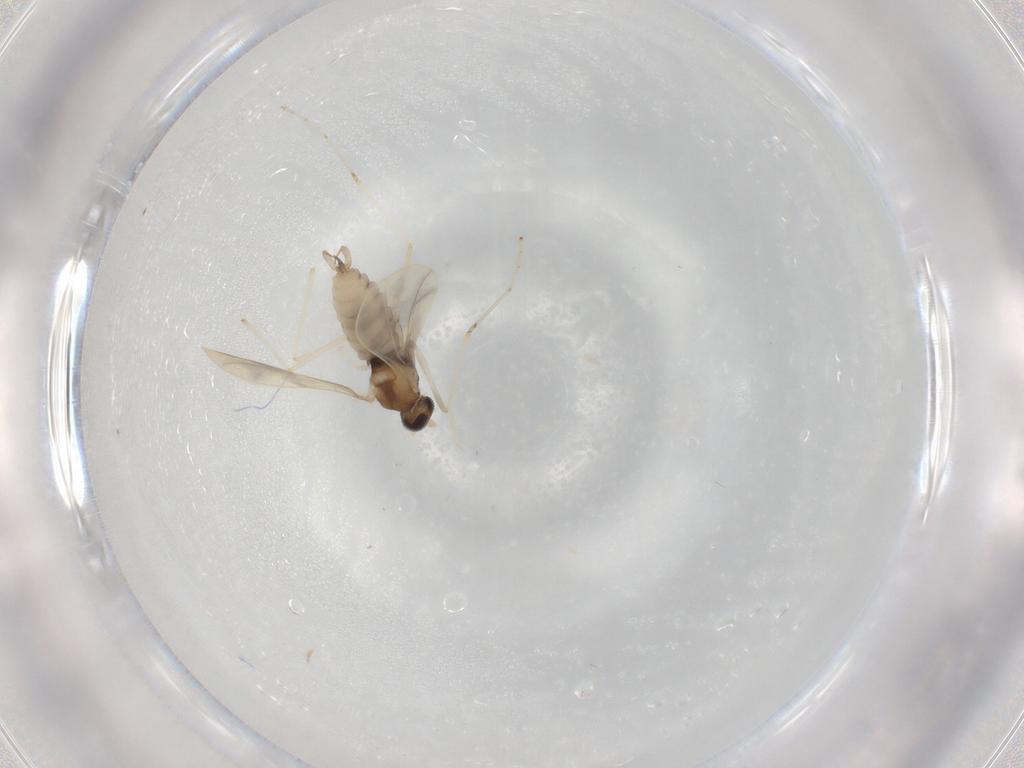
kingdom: Animalia
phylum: Arthropoda
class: Insecta
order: Diptera
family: Cecidomyiidae
